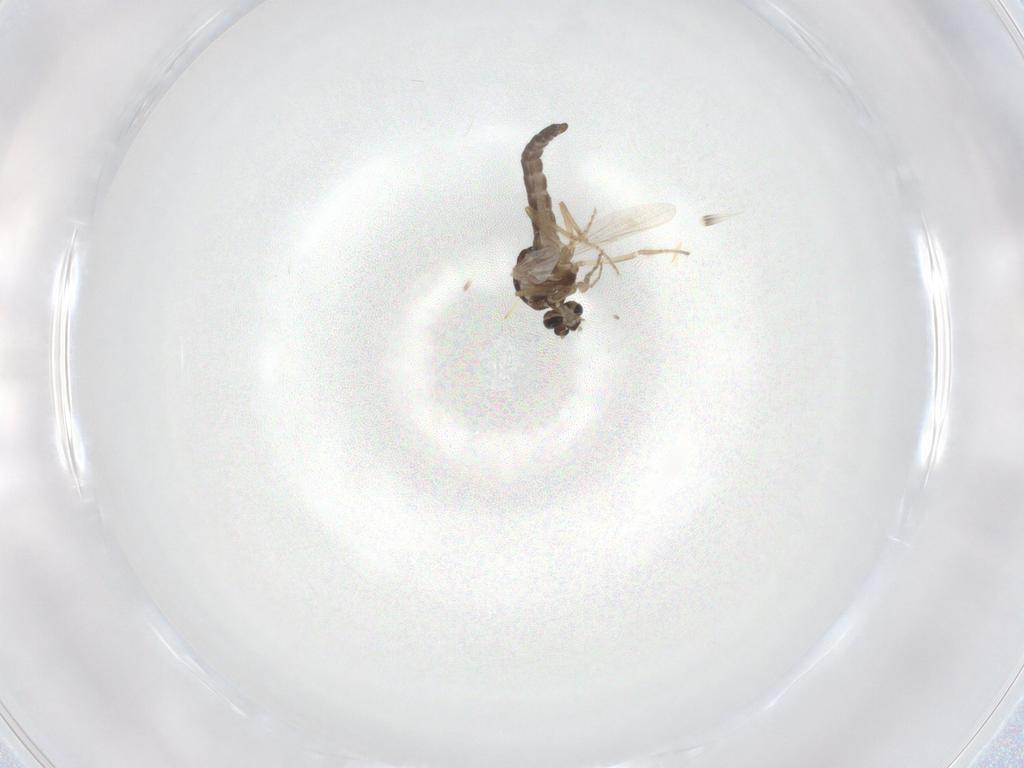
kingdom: Animalia
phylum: Arthropoda
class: Insecta
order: Diptera
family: Ceratopogonidae
